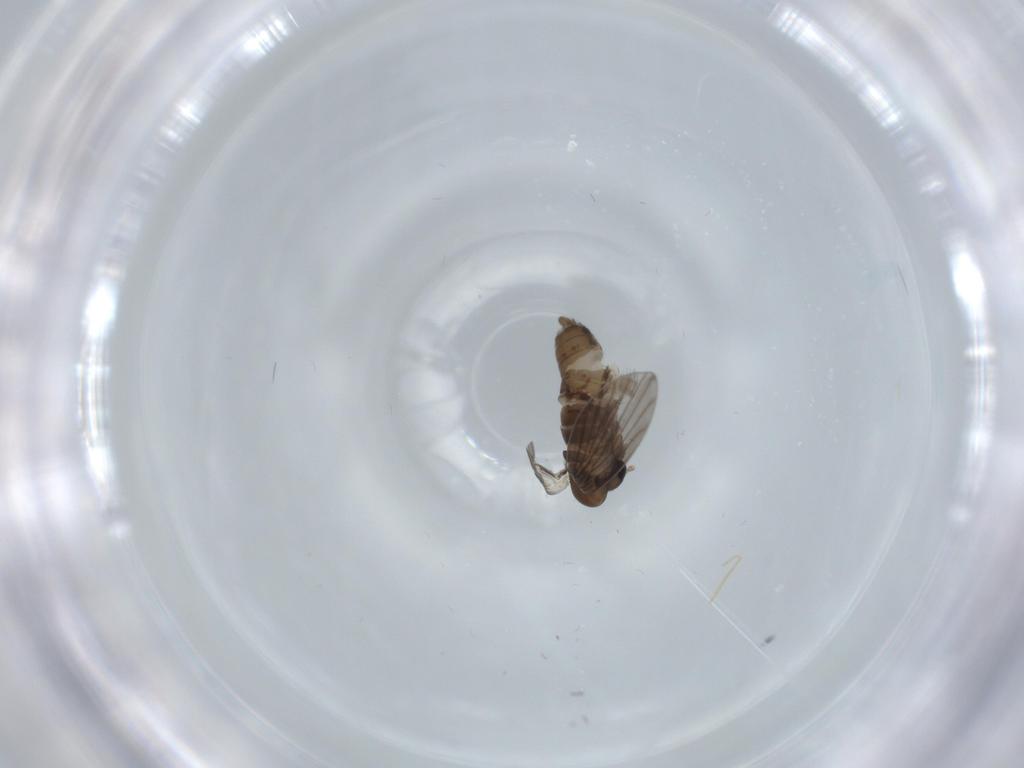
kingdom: Animalia
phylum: Arthropoda
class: Insecta
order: Diptera
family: Psychodidae
